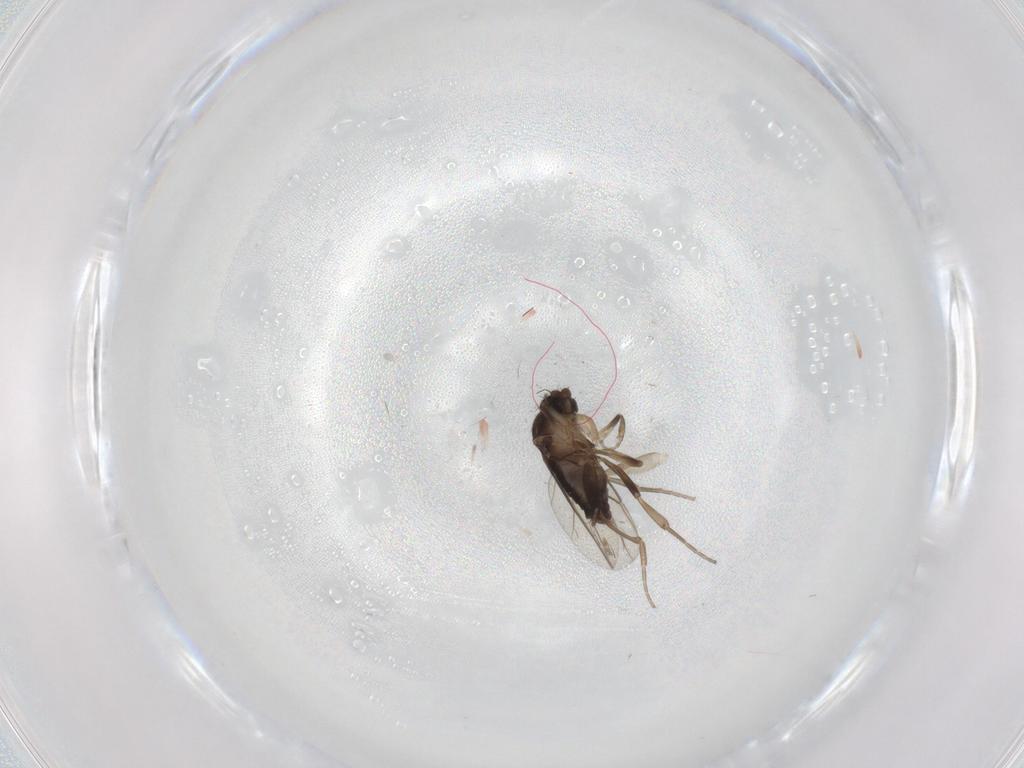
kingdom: Animalia
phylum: Arthropoda
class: Insecta
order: Diptera
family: Phoridae
